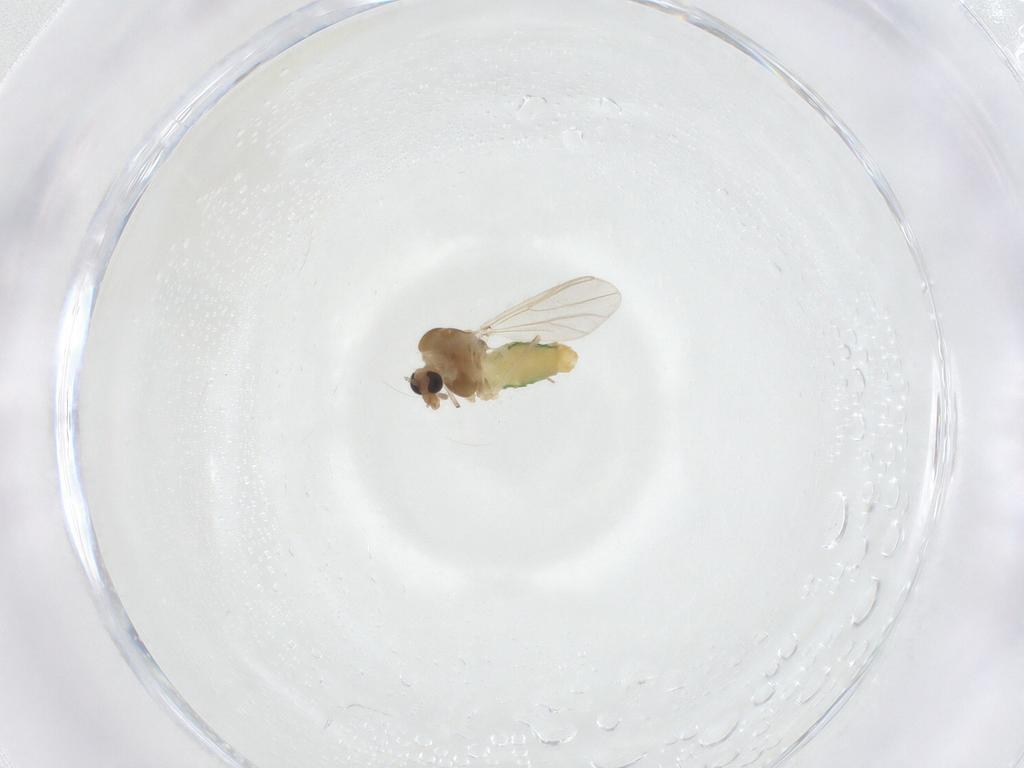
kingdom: Animalia
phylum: Arthropoda
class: Insecta
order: Diptera
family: Chironomidae
